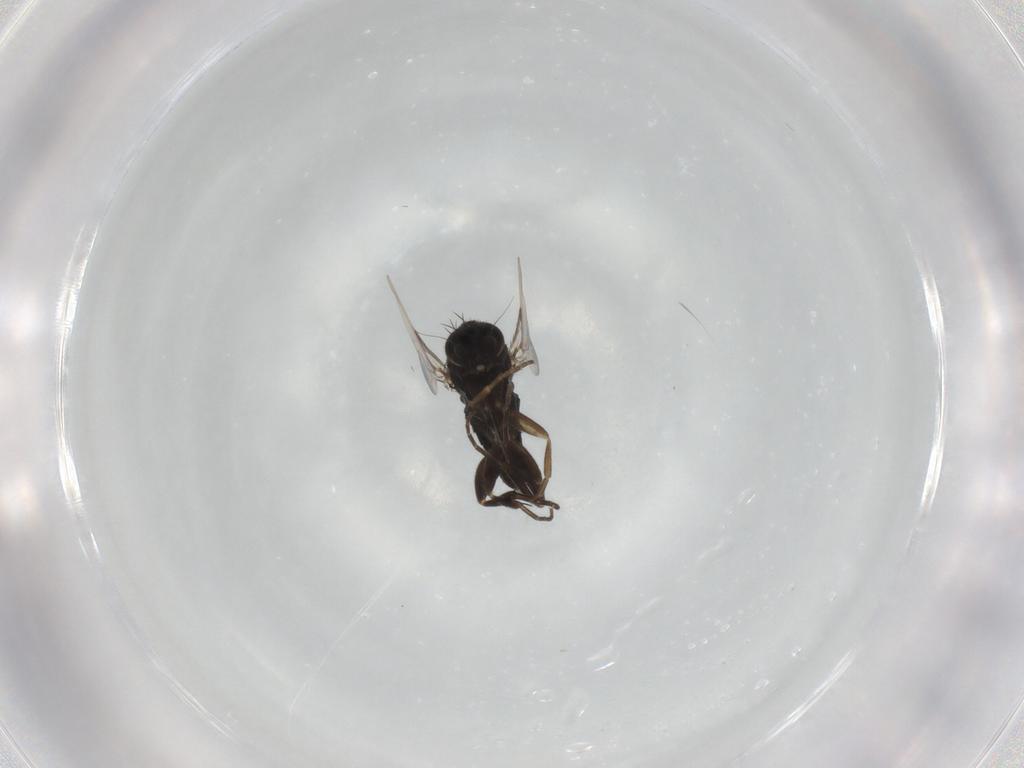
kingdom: Animalia
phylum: Arthropoda
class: Insecta
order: Diptera
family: Phoridae
